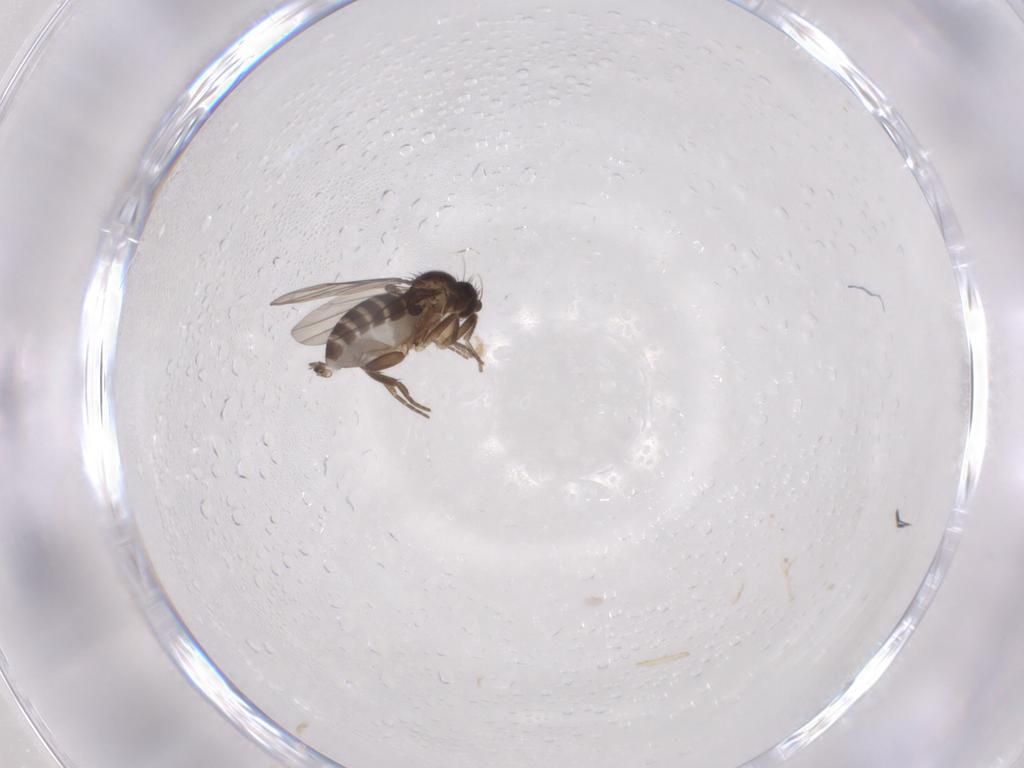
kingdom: Animalia
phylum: Arthropoda
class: Insecta
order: Diptera
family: Phoridae
